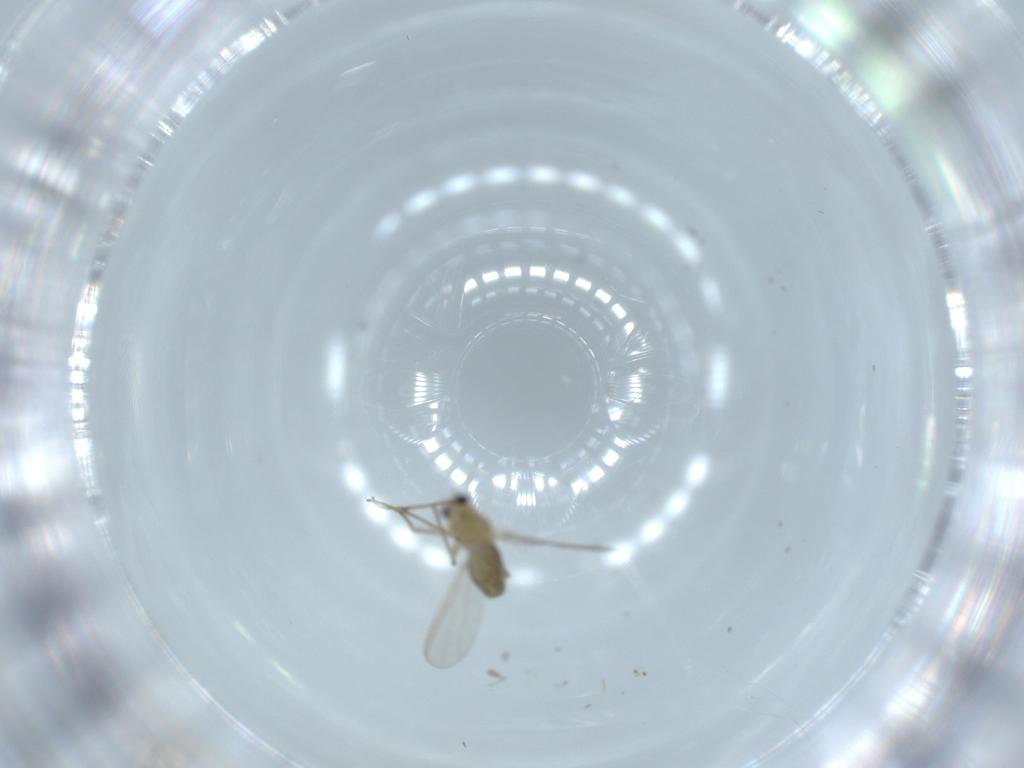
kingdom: Animalia
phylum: Arthropoda
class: Insecta
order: Diptera
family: Chironomidae
